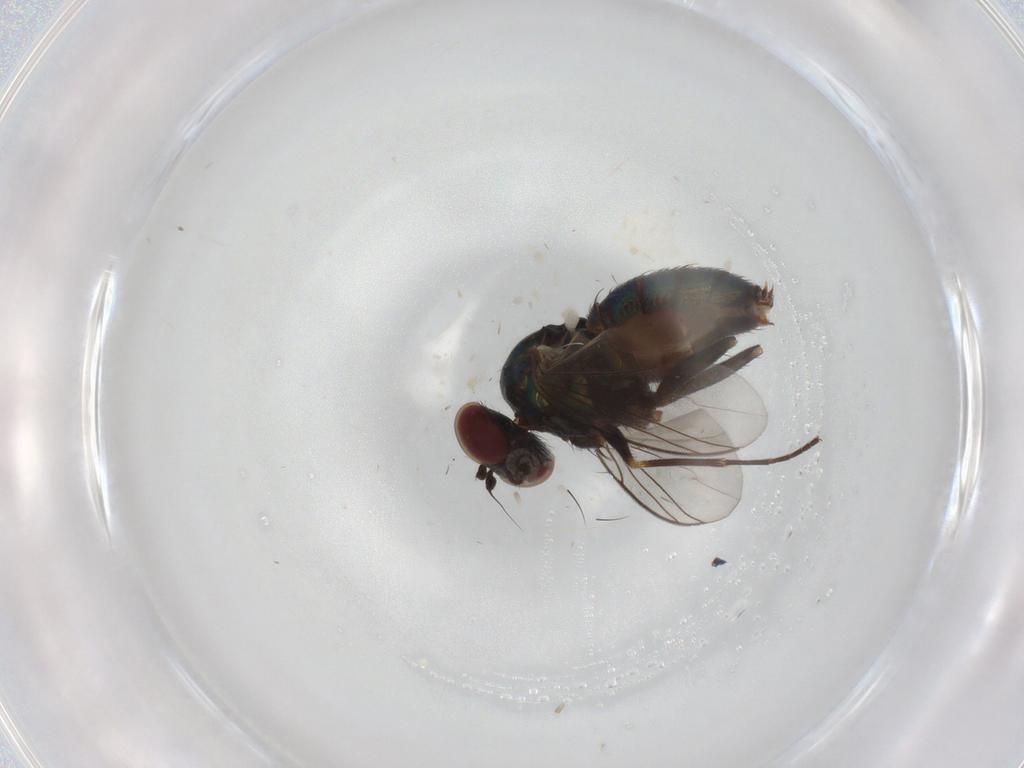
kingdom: Animalia
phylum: Arthropoda
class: Insecta
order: Diptera
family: Dolichopodidae
